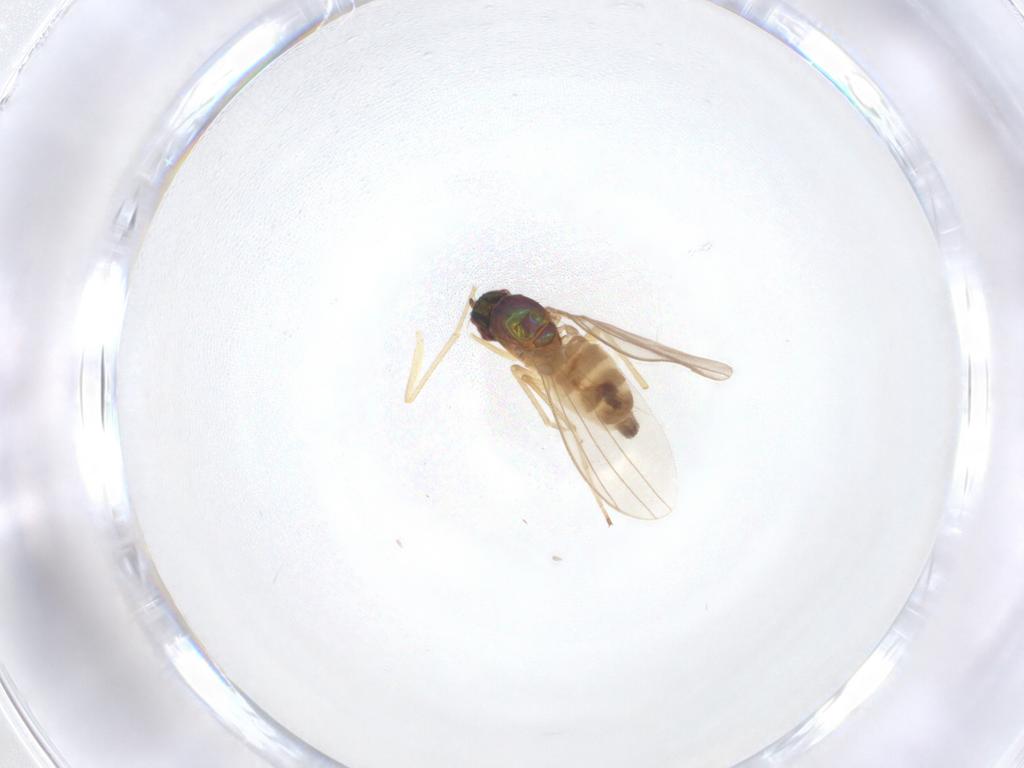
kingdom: Animalia
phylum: Arthropoda
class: Insecta
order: Diptera
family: Dolichopodidae
